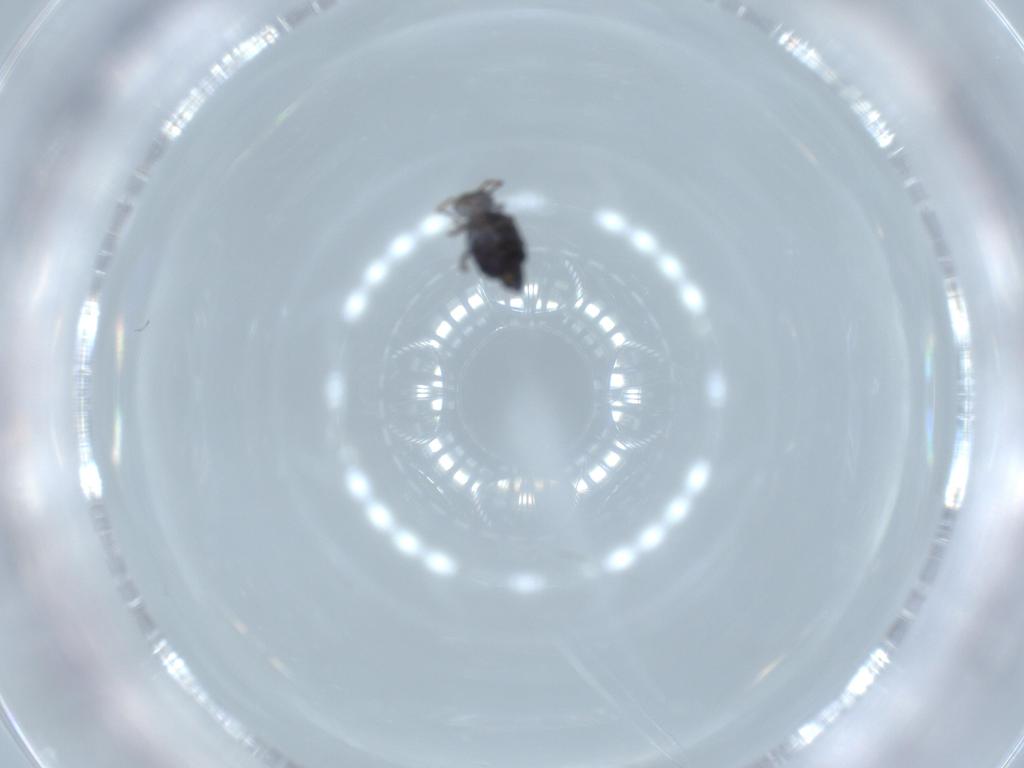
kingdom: Animalia
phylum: Arthropoda
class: Collembola
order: Symphypleona
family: Katiannidae
